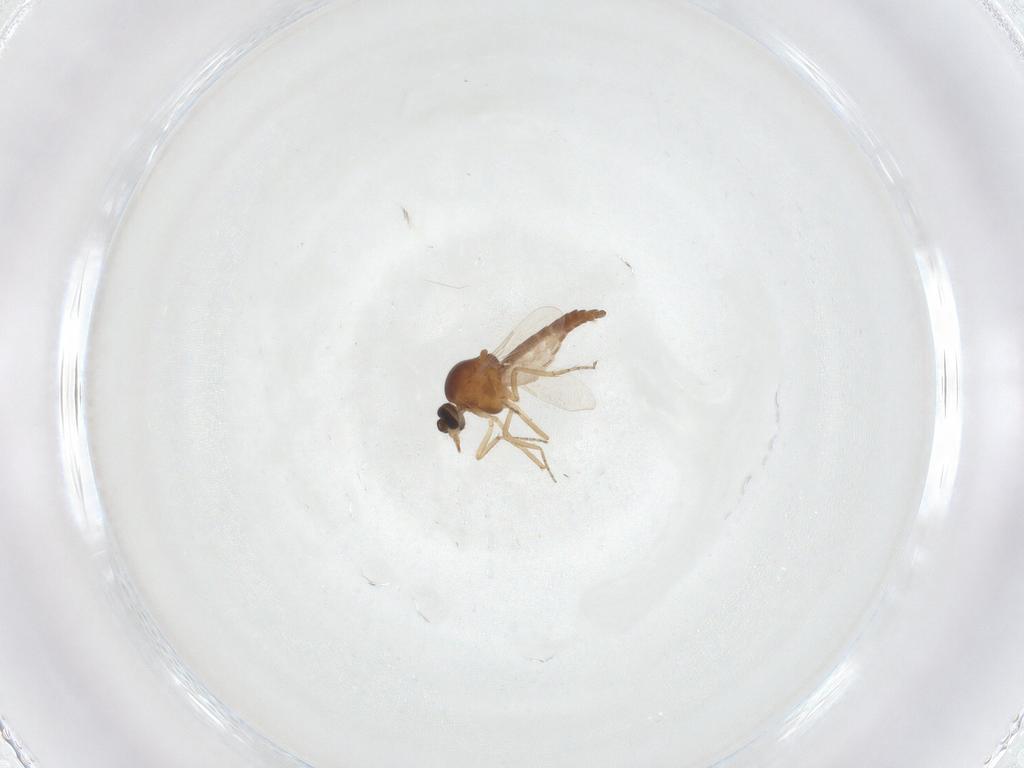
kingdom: Animalia
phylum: Arthropoda
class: Insecta
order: Diptera
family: Ceratopogonidae
